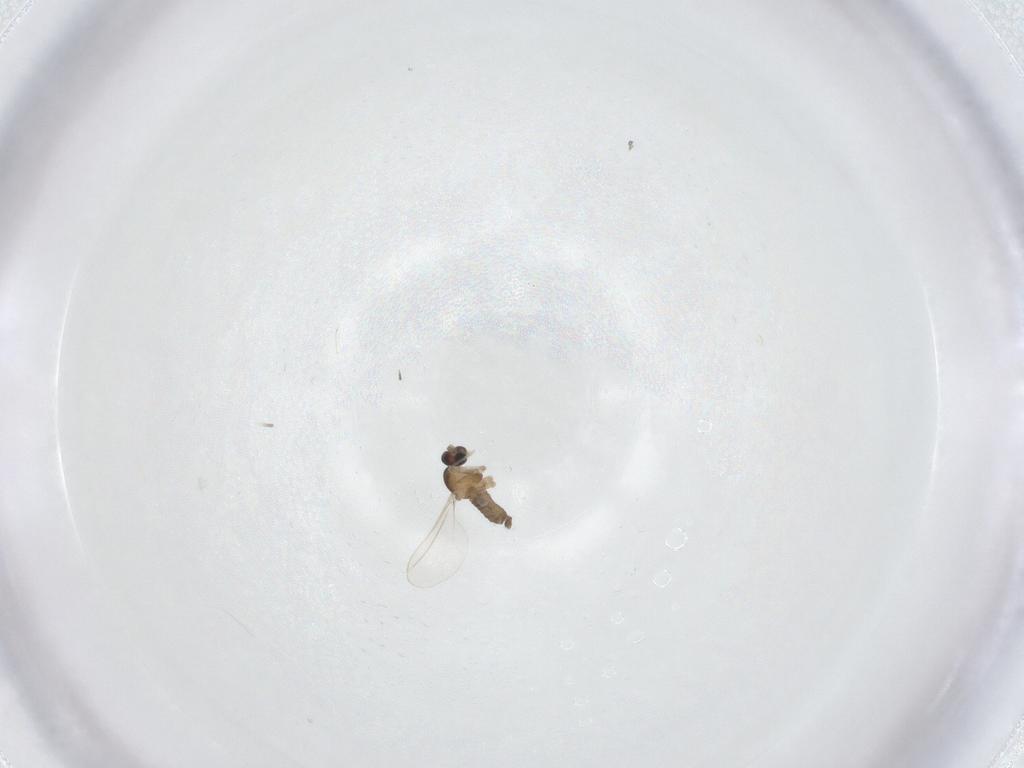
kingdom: Animalia
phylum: Arthropoda
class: Insecta
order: Diptera
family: Cecidomyiidae
